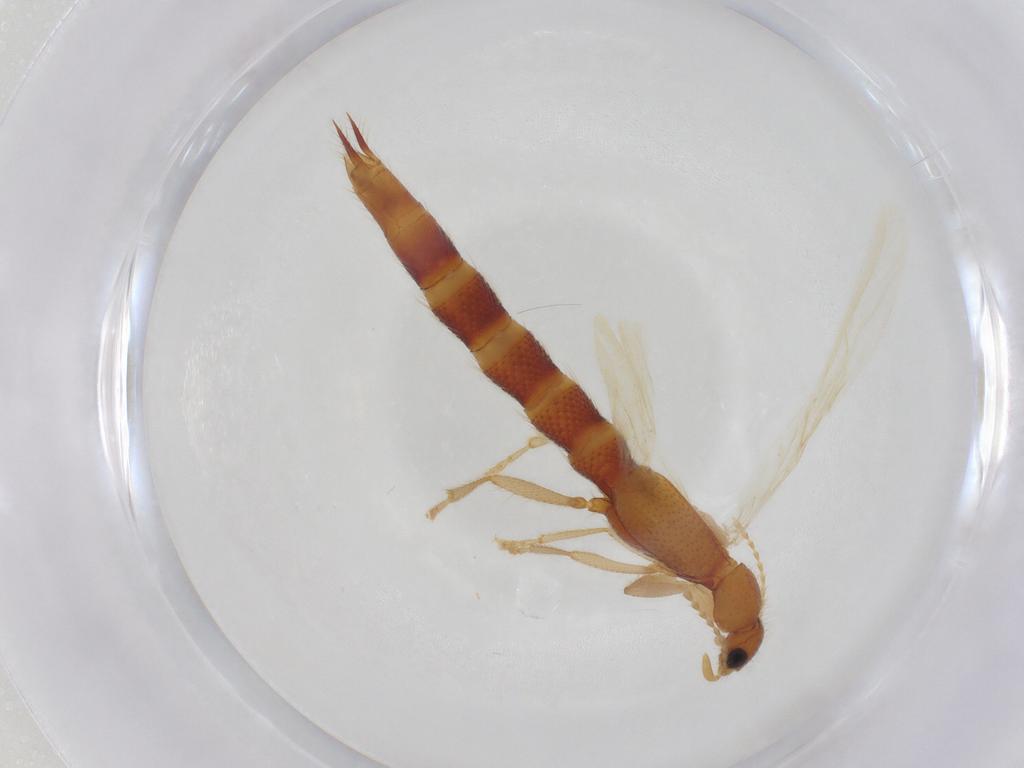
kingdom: Animalia
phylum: Arthropoda
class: Insecta
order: Coleoptera
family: Staphylinidae
